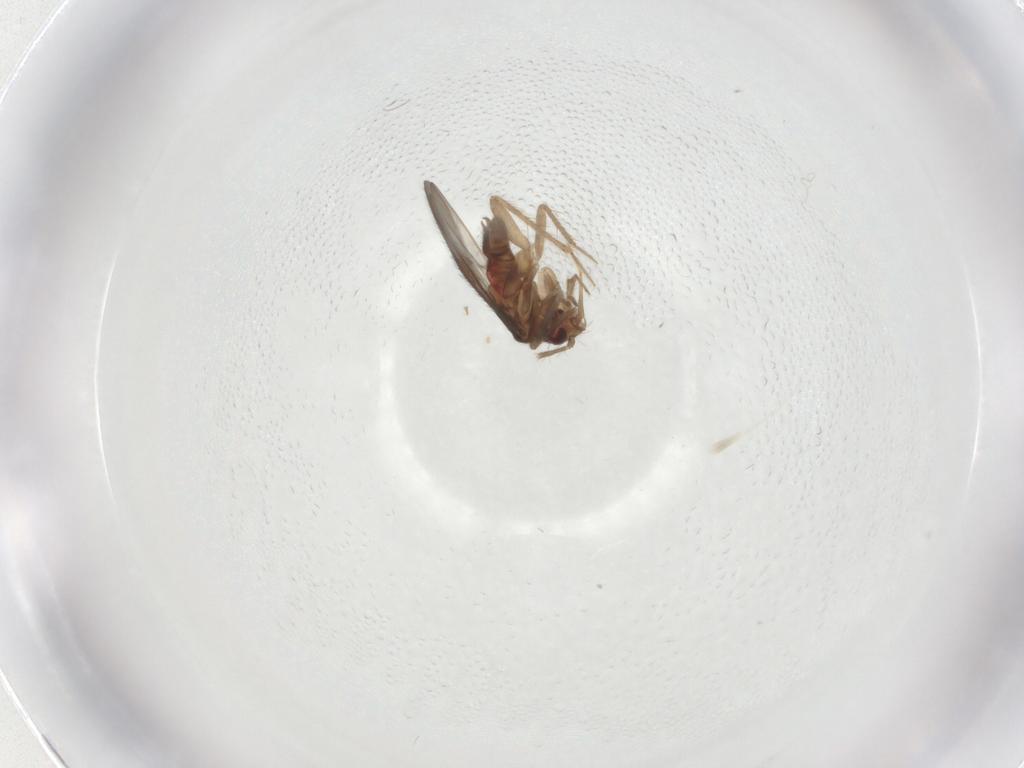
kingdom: Animalia
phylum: Arthropoda
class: Insecta
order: Hemiptera
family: Ceratocombidae
